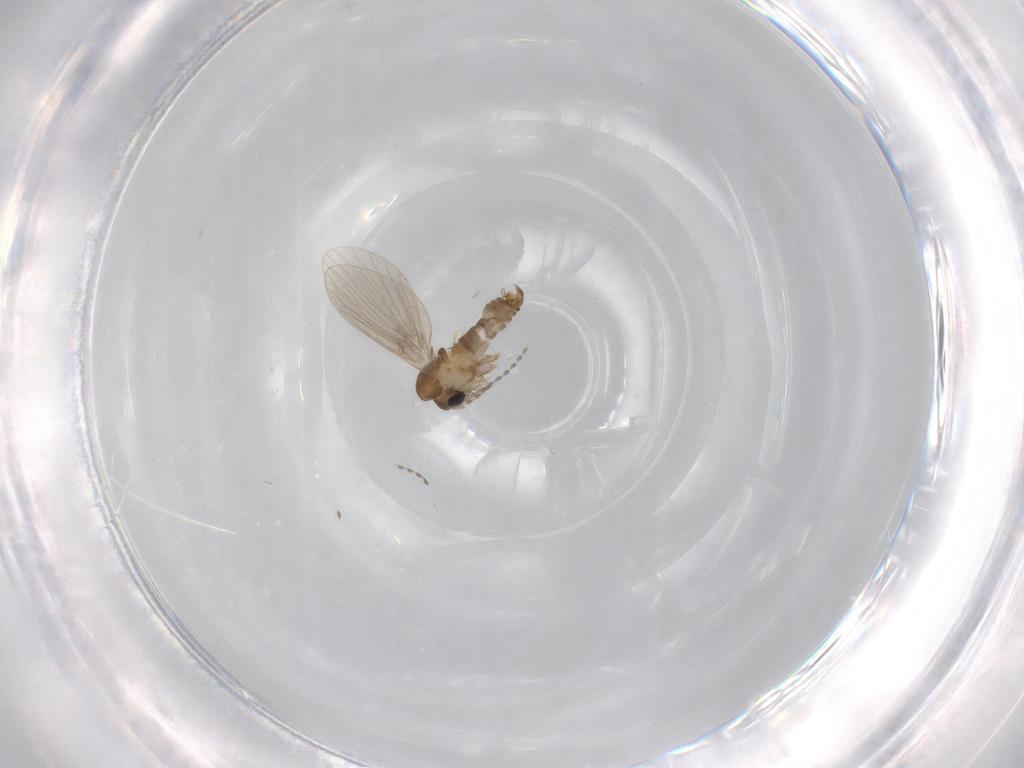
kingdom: Animalia
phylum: Arthropoda
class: Insecta
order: Diptera
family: Psychodidae
